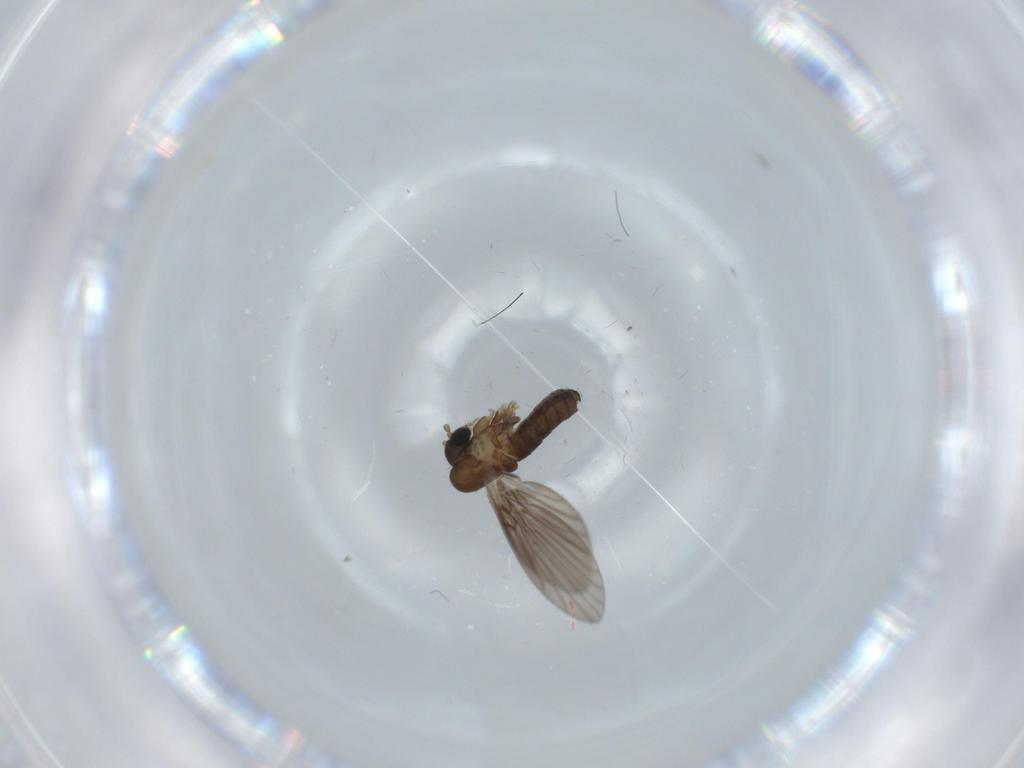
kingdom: Animalia
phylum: Arthropoda
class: Insecta
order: Diptera
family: Psychodidae
